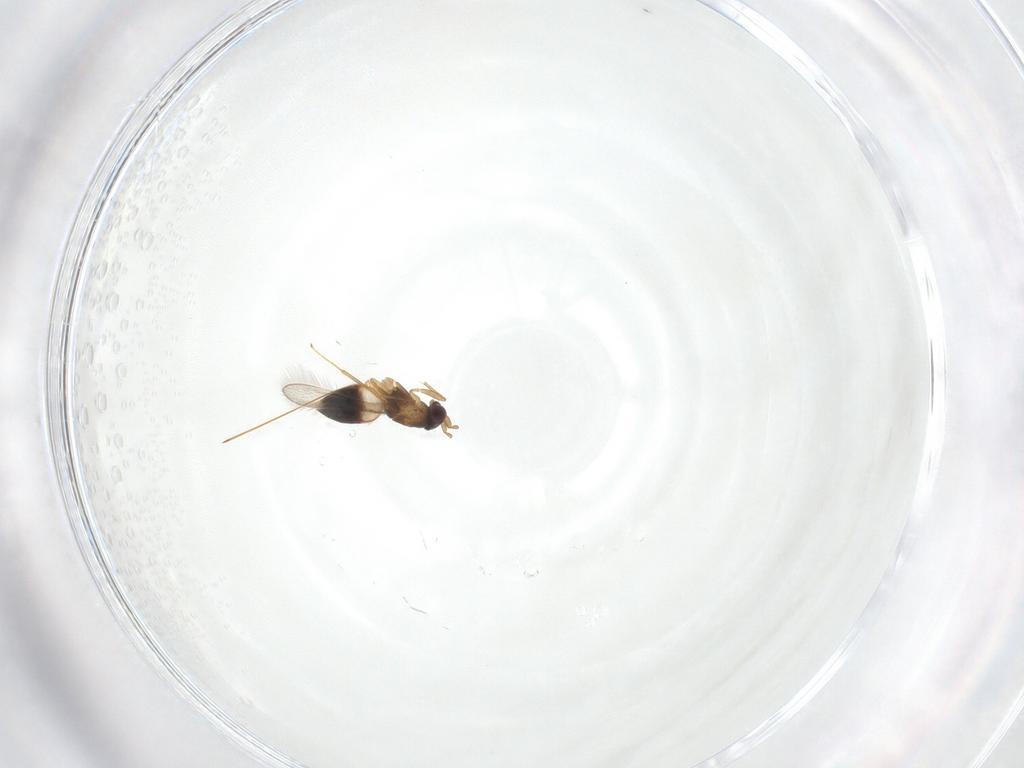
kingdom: Animalia
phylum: Arthropoda
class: Insecta
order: Hymenoptera
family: Mymaridae
